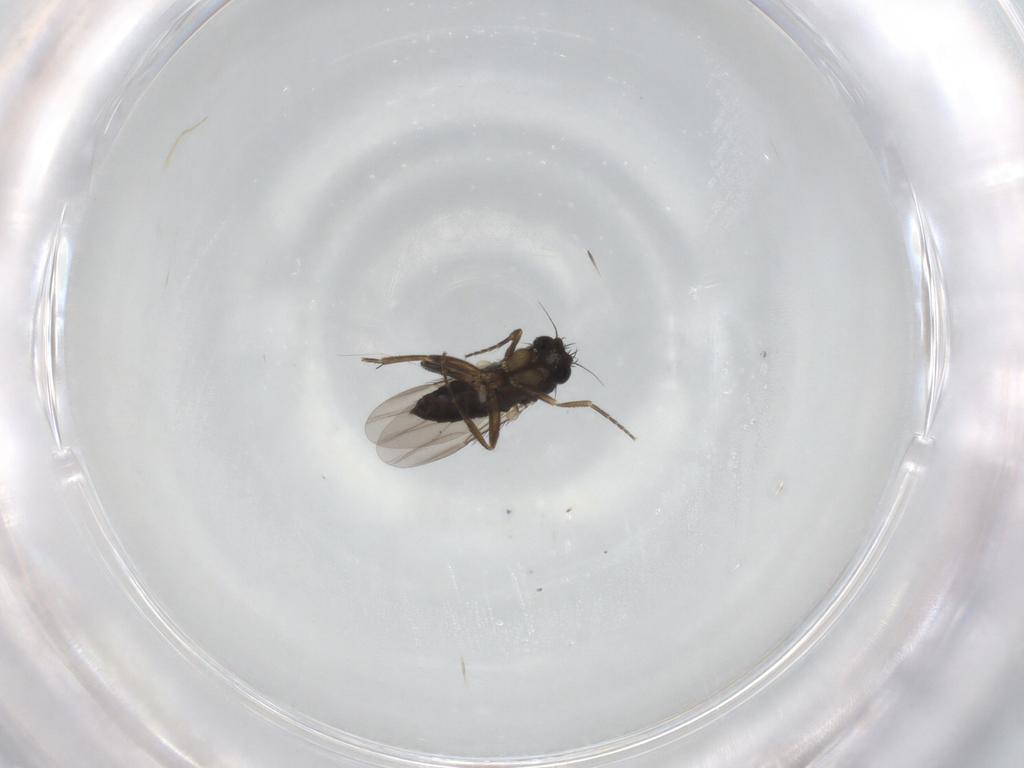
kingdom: Animalia
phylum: Arthropoda
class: Insecta
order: Diptera
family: Phoridae
